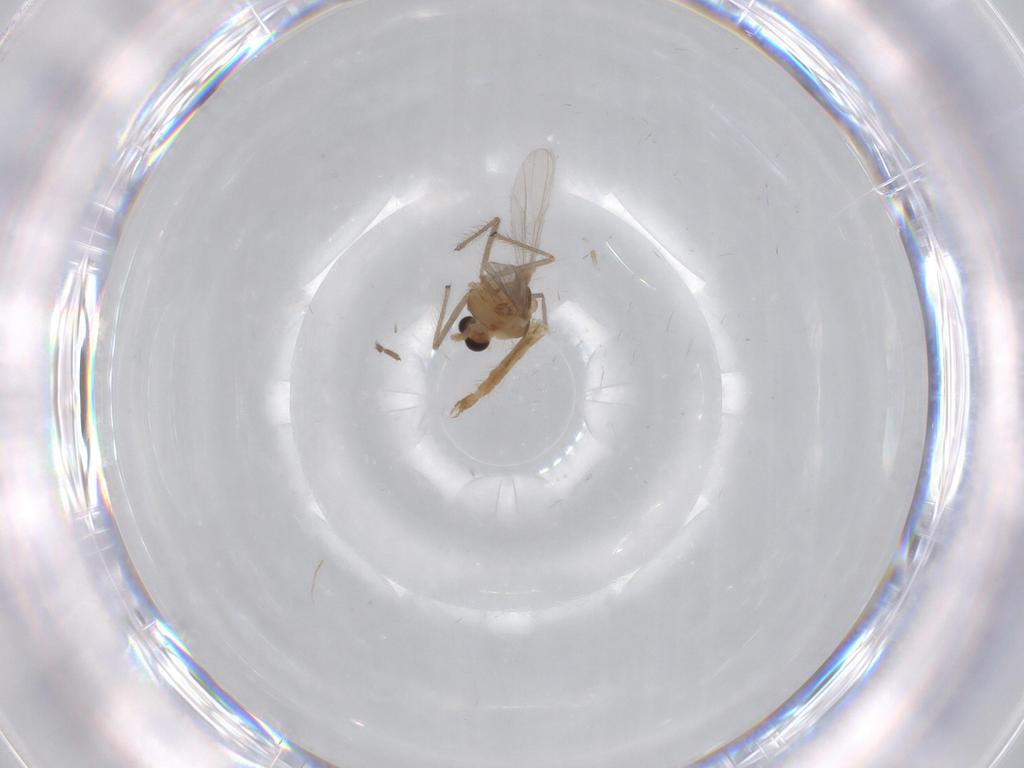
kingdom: Animalia
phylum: Arthropoda
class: Insecta
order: Diptera
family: Chironomidae
